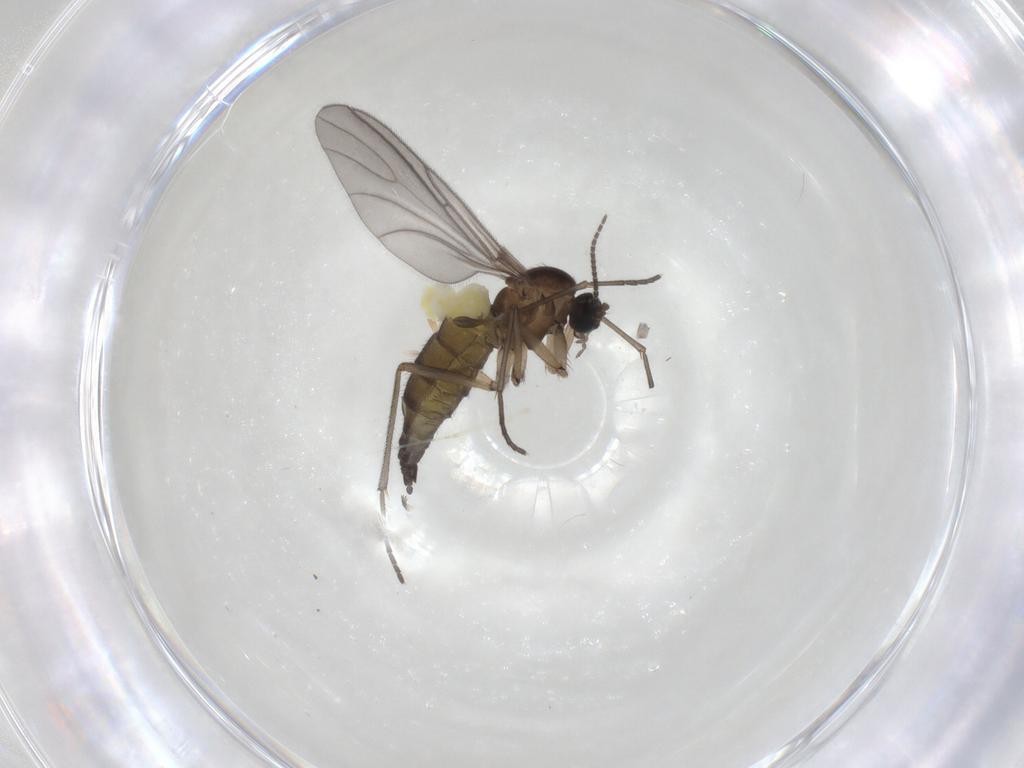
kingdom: Animalia
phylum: Arthropoda
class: Insecta
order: Diptera
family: Sciaridae
